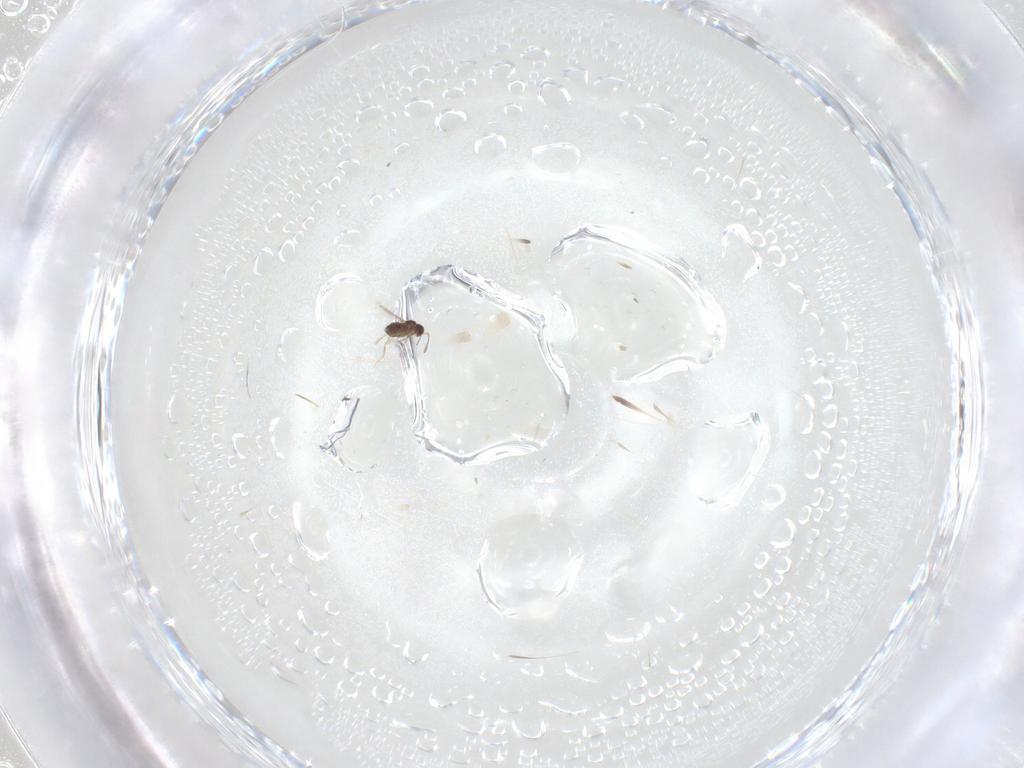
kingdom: Animalia
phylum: Arthropoda
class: Insecta
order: Hymenoptera
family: Mymaridae
